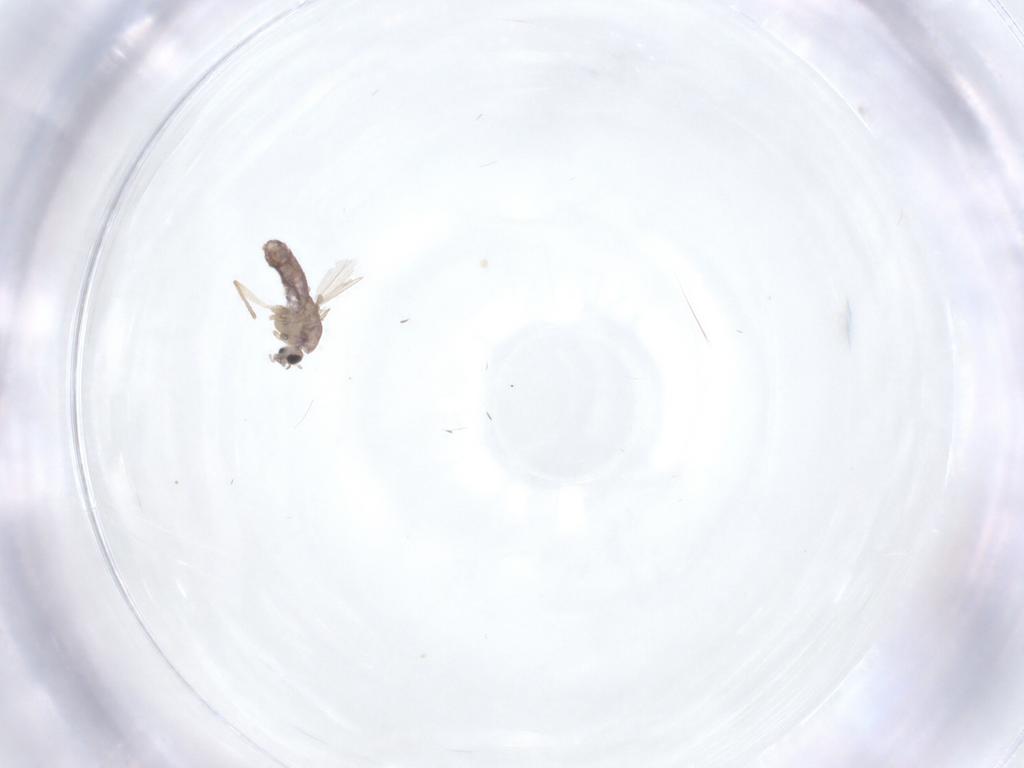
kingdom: Animalia
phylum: Arthropoda
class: Insecta
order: Diptera
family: Chironomidae
